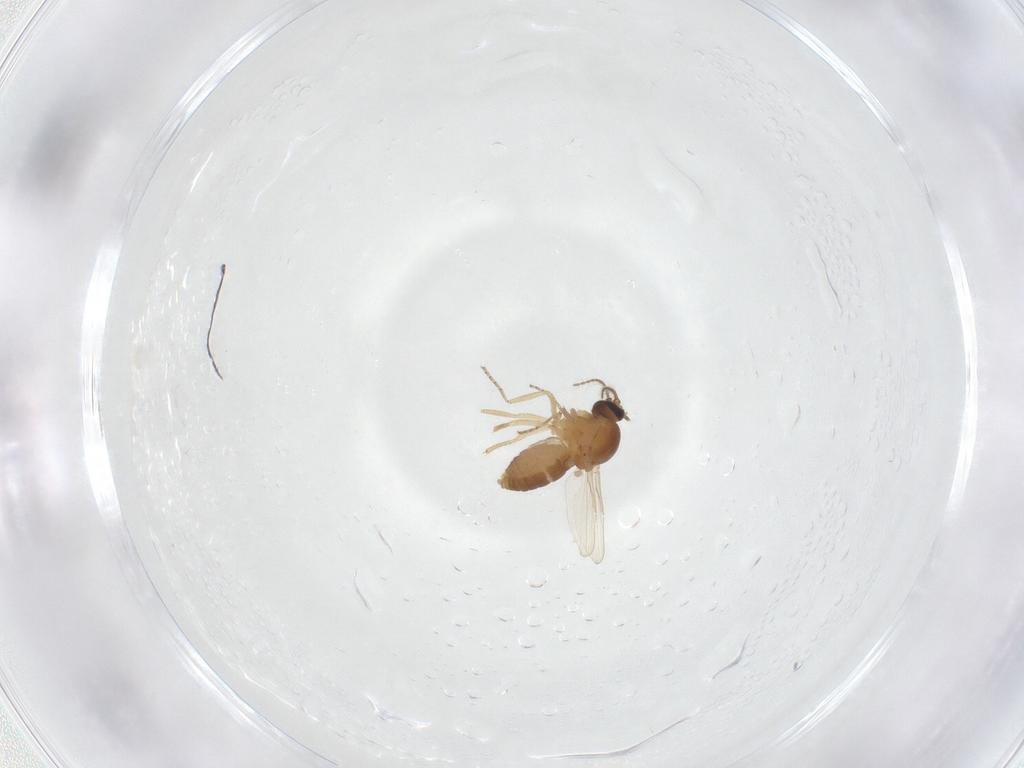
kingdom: Animalia
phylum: Arthropoda
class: Insecta
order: Diptera
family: Ceratopogonidae
